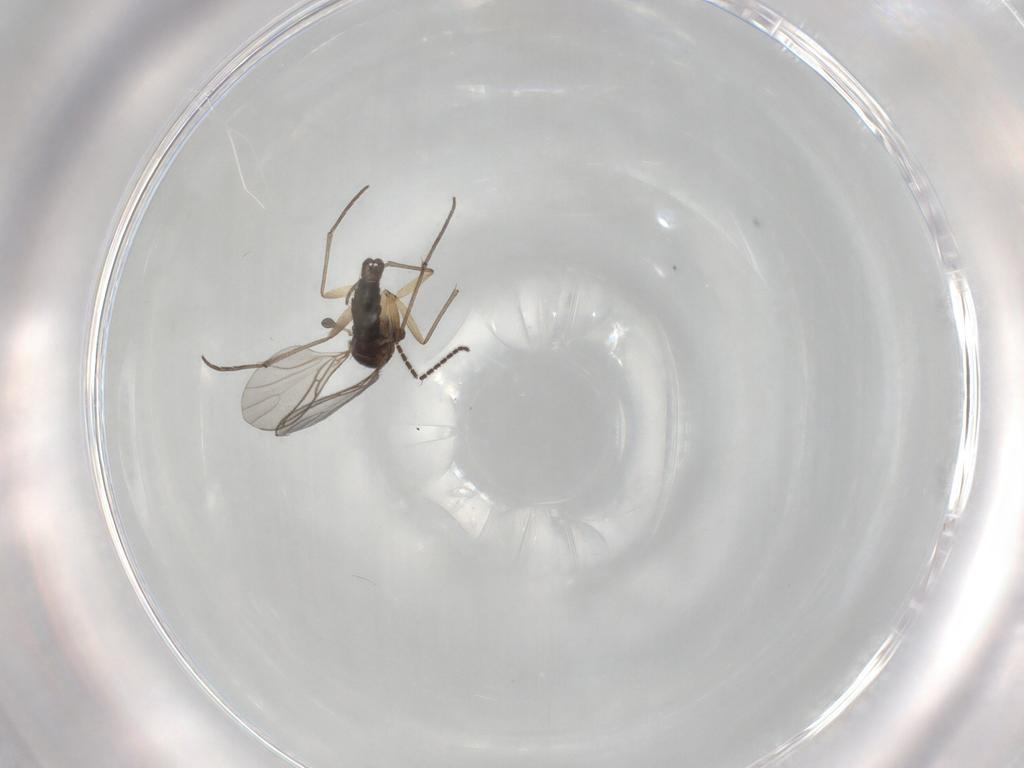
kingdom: Animalia
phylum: Arthropoda
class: Insecta
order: Diptera
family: Sciaridae
